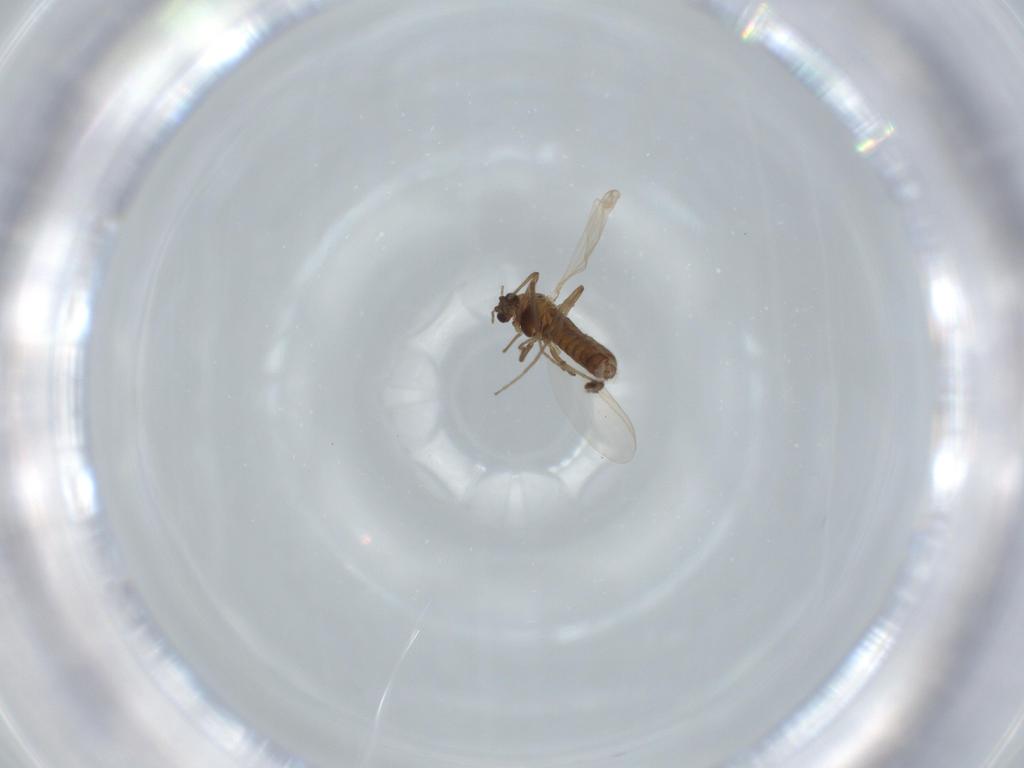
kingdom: Animalia
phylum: Arthropoda
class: Insecta
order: Diptera
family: Chironomidae
